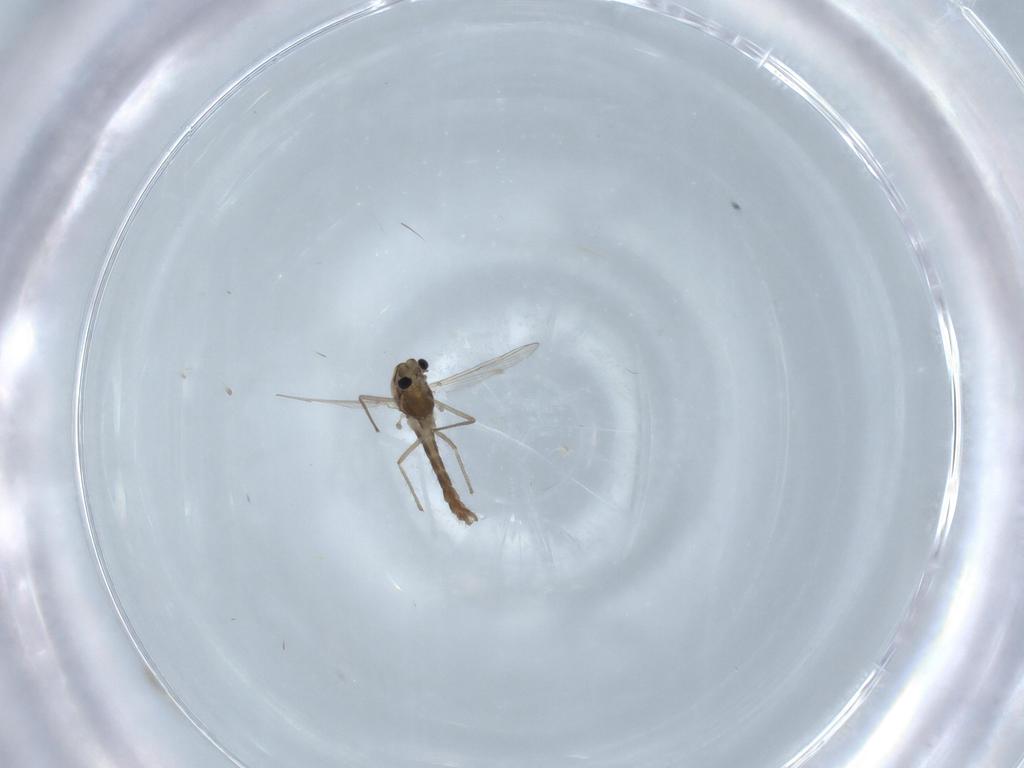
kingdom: Animalia
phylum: Arthropoda
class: Insecta
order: Diptera
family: Chironomidae
